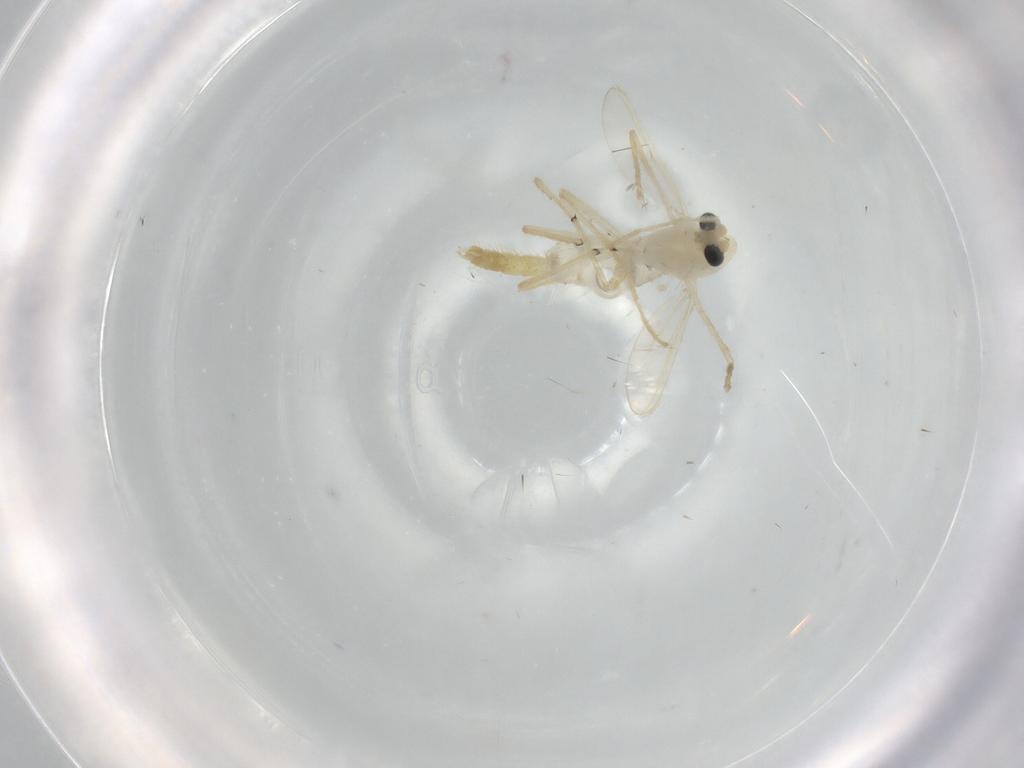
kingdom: Animalia
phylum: Arthropoda
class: Insecta
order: Diptera
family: Chironomidae
